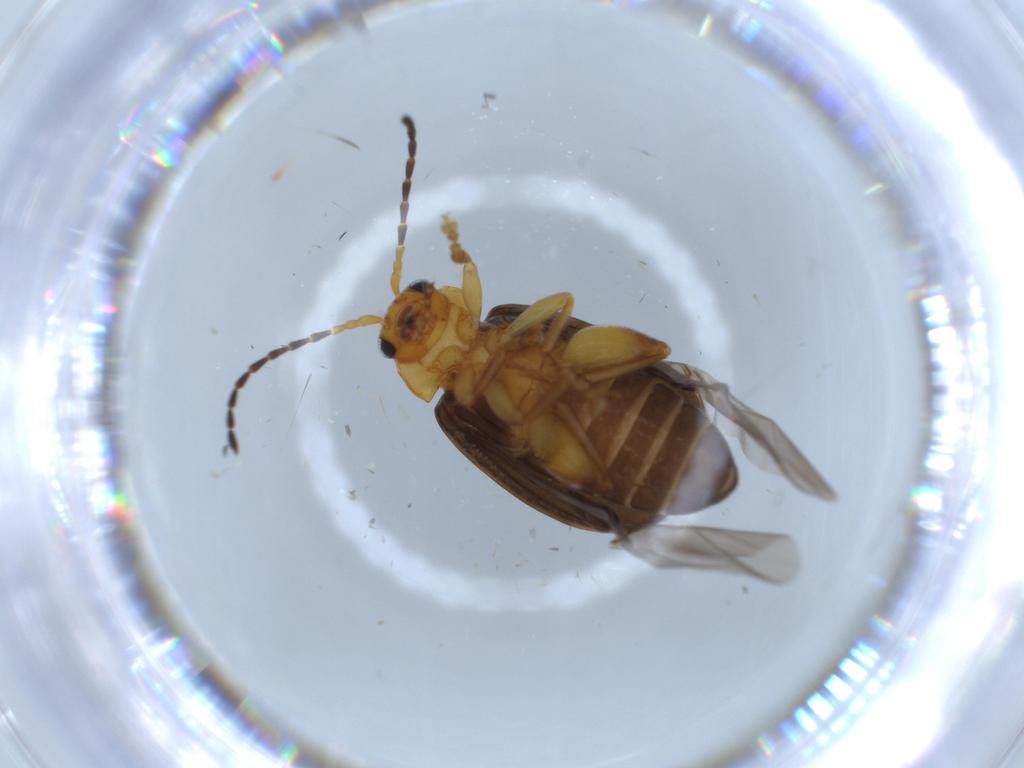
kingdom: Animalia
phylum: Arthropoda
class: Insecta
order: Coleoptera
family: Chrysomelidae
